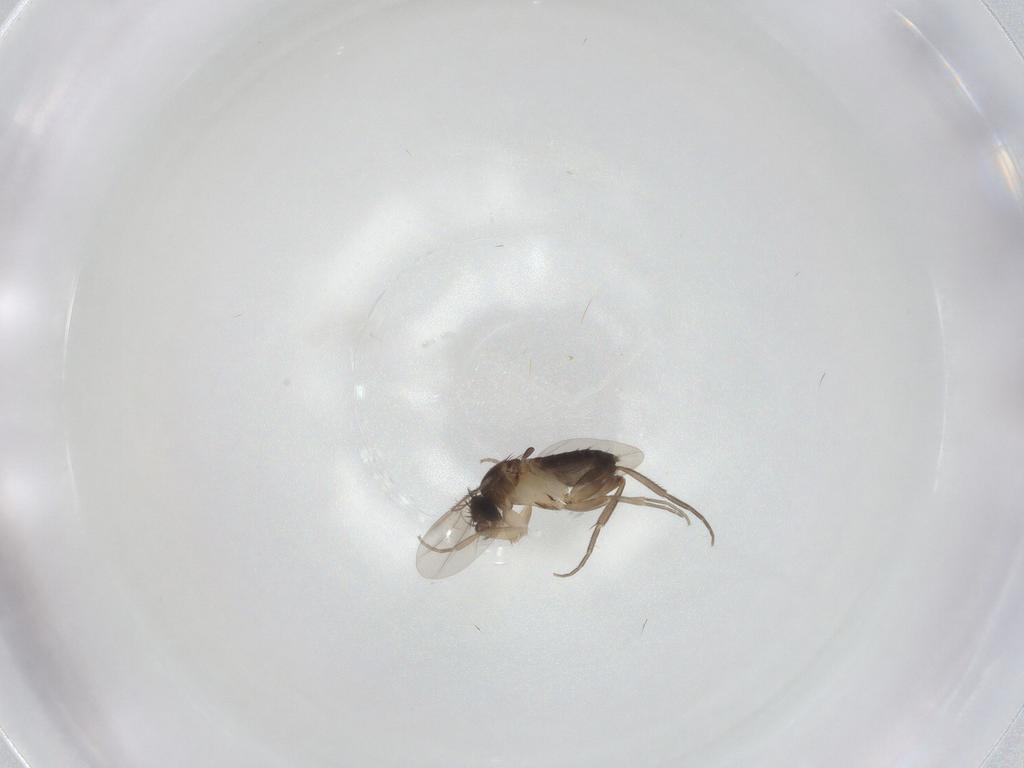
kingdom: Animalia
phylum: Arthropoda
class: Insecta
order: Diptera
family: Phoridae
